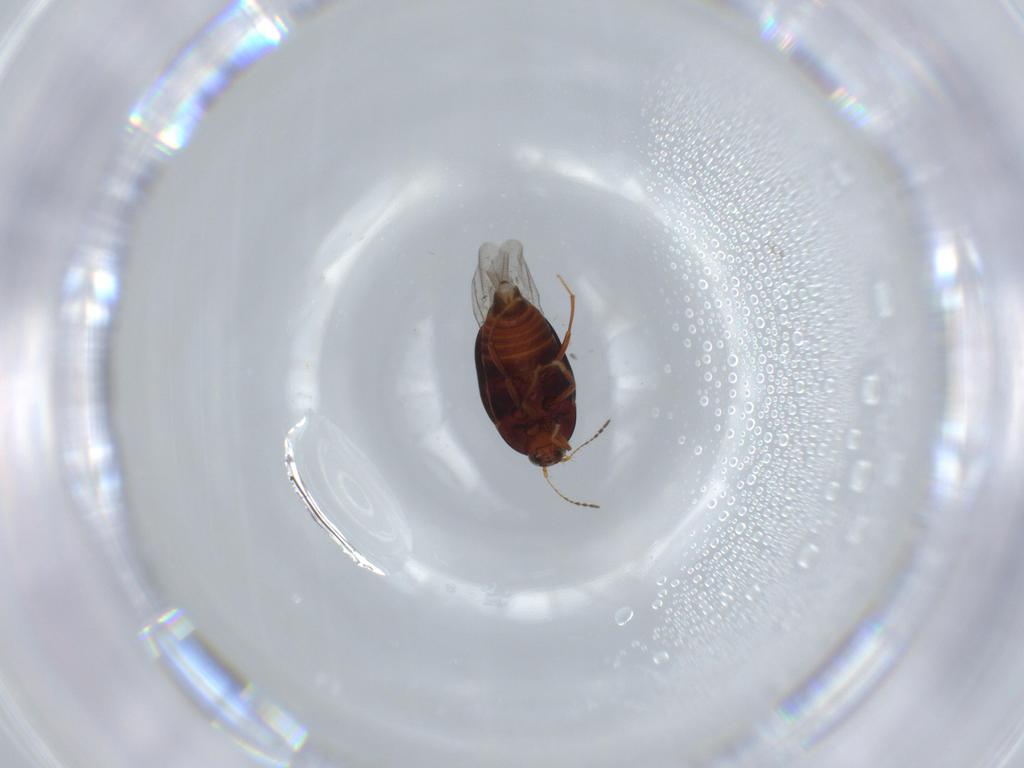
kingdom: Animalia
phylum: Arthropoda
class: Insecta
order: Coleoptera
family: Staphylinidae
